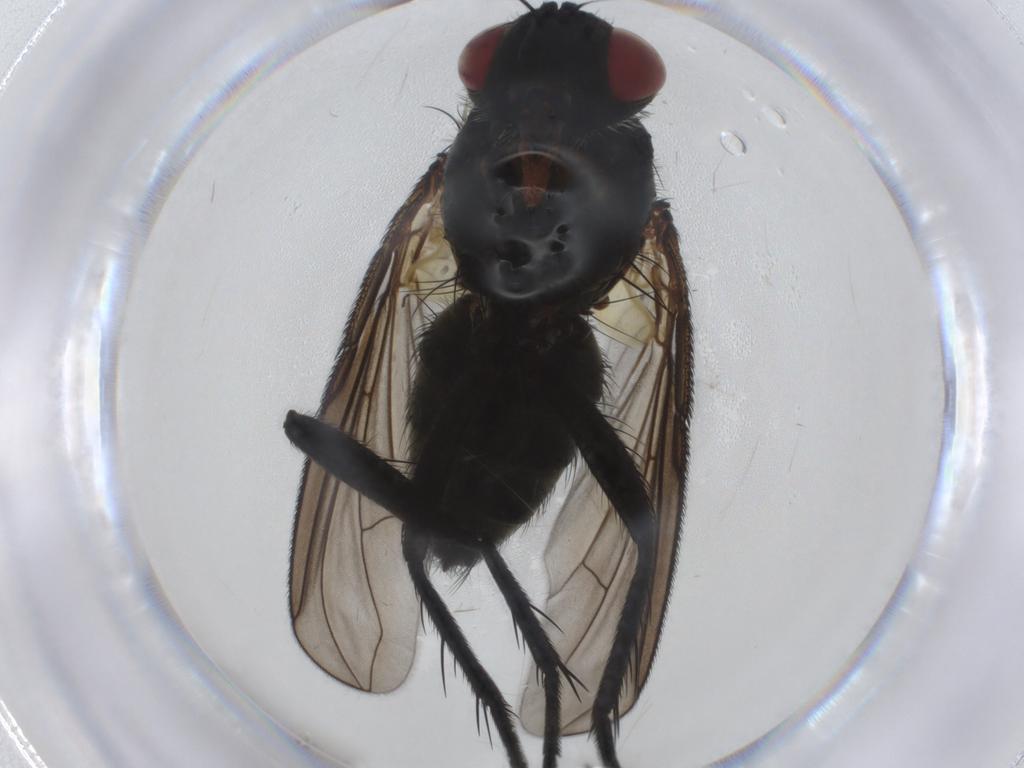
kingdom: Animalia
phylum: Arthropoda
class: Insecta
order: Diptera
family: Tachinidae
